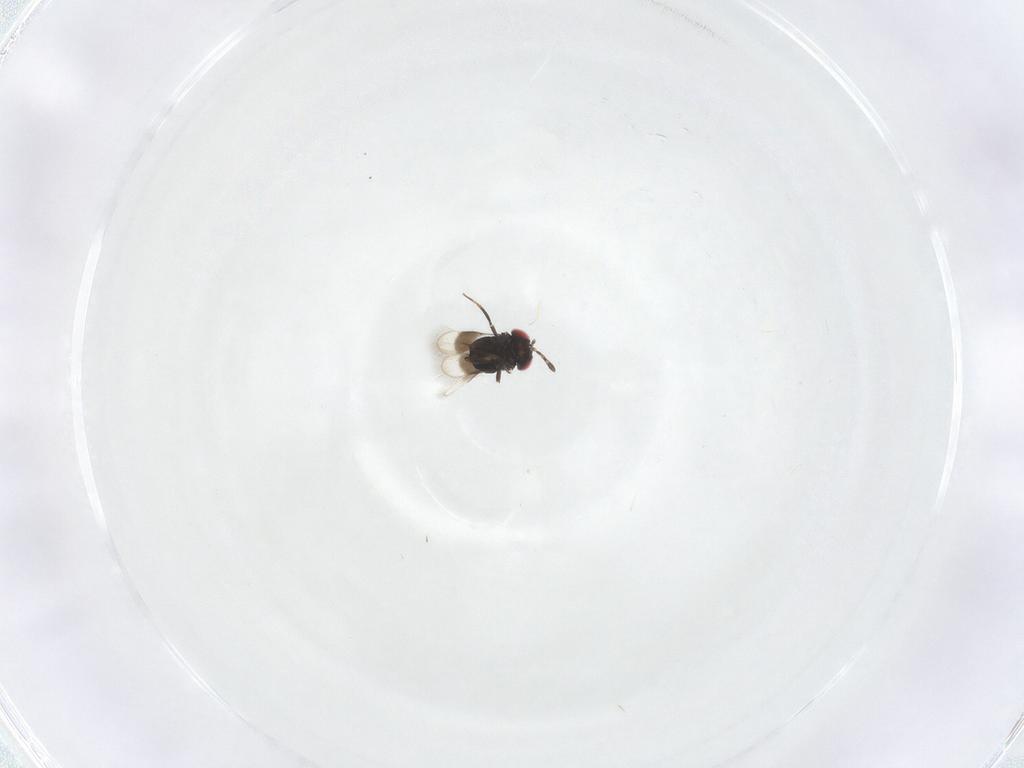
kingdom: Animalia
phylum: Arthropoda
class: Insecta
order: Hymenoptera
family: Azotidae
